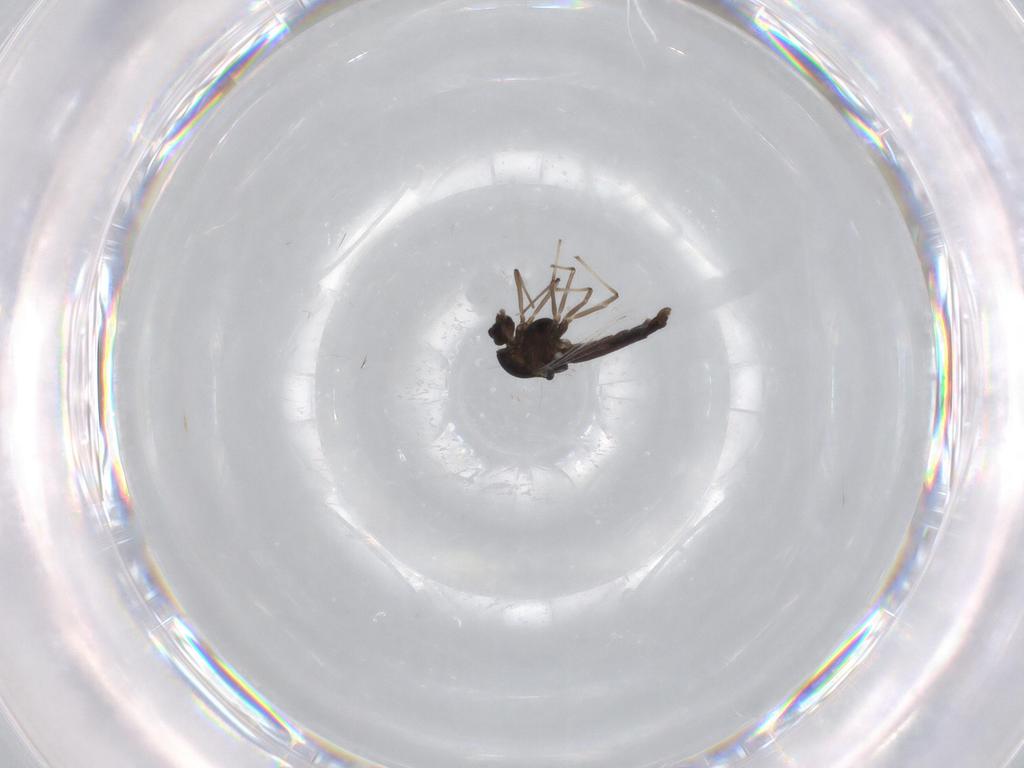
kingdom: Animalia
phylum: Arthropoda
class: Insecta
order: Diptera
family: Chironomidae
